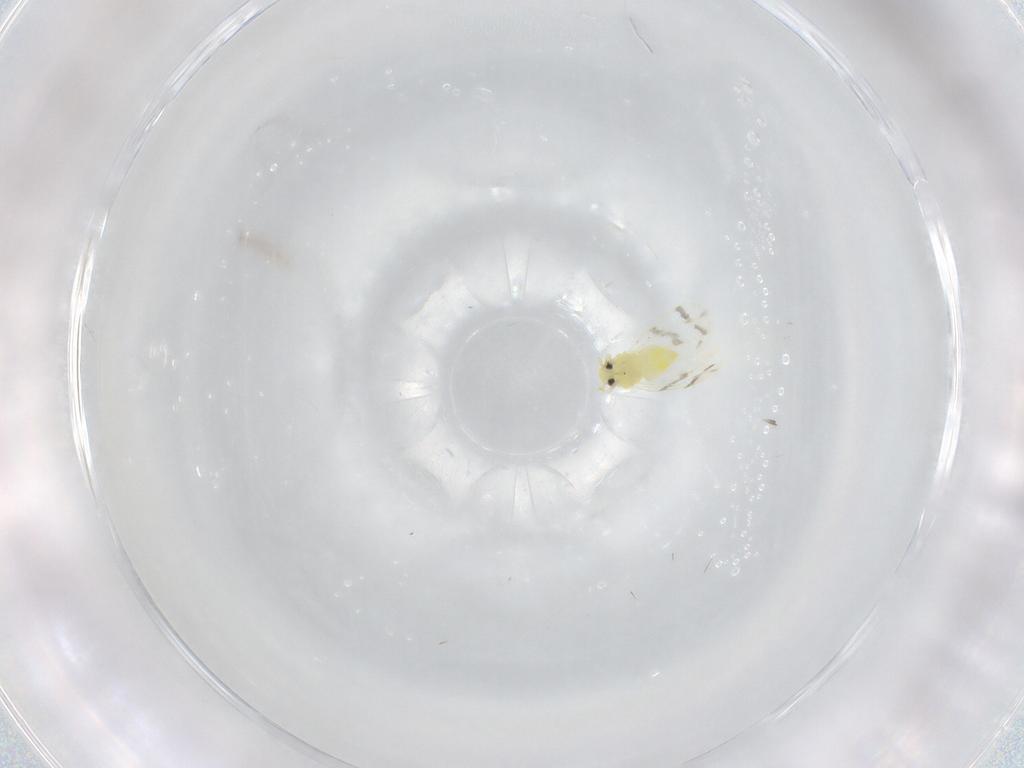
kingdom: Animalia
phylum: Arthropoda
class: Insecta
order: Hemiptera
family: Aleyrodidae
